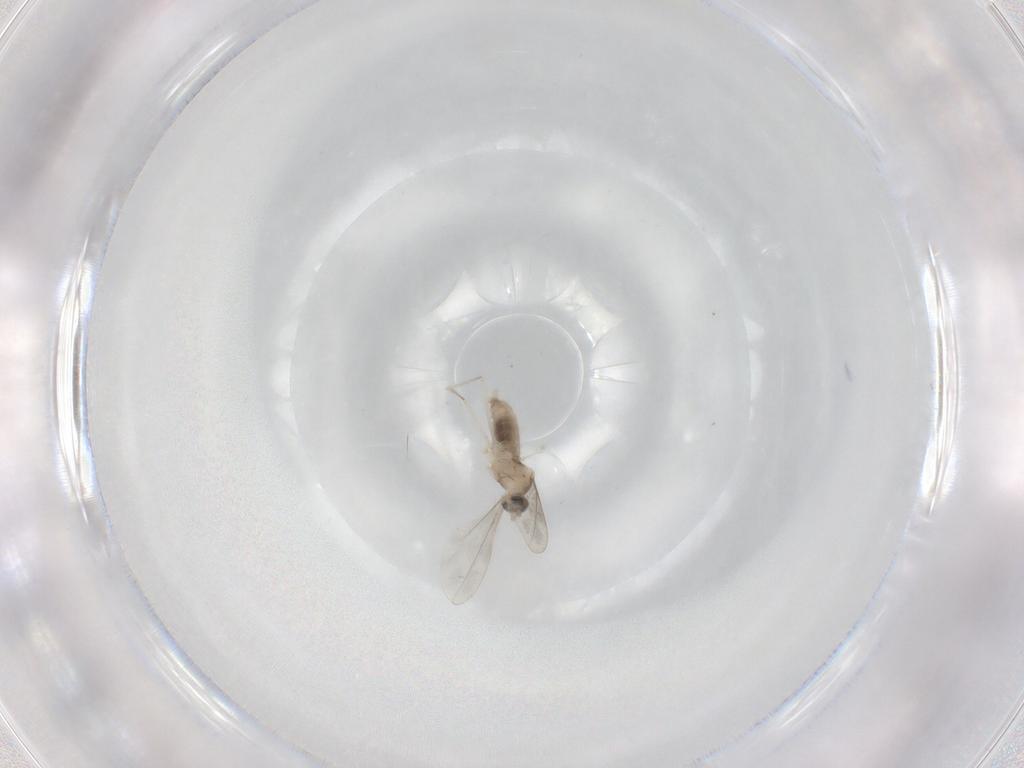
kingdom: Animalia
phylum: Arthropoda
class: Insecta
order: Diptera
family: Cecidomyiidae
